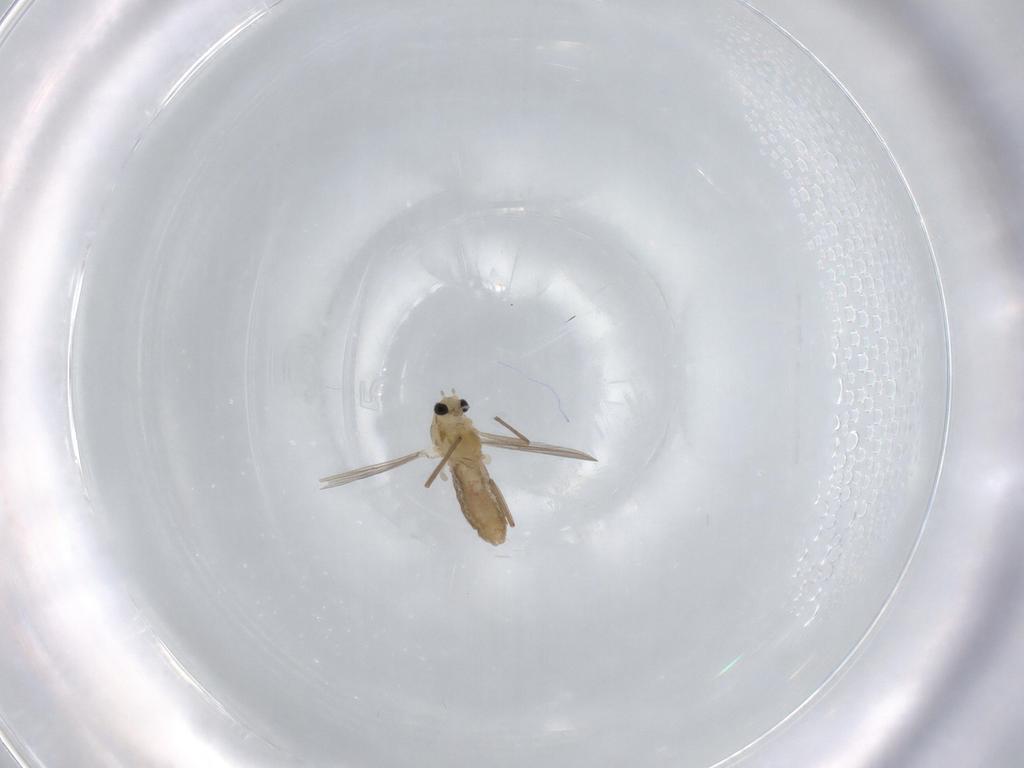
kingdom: Animalia
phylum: Arthropoda
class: Insecta
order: Diptera
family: Chironomidae
